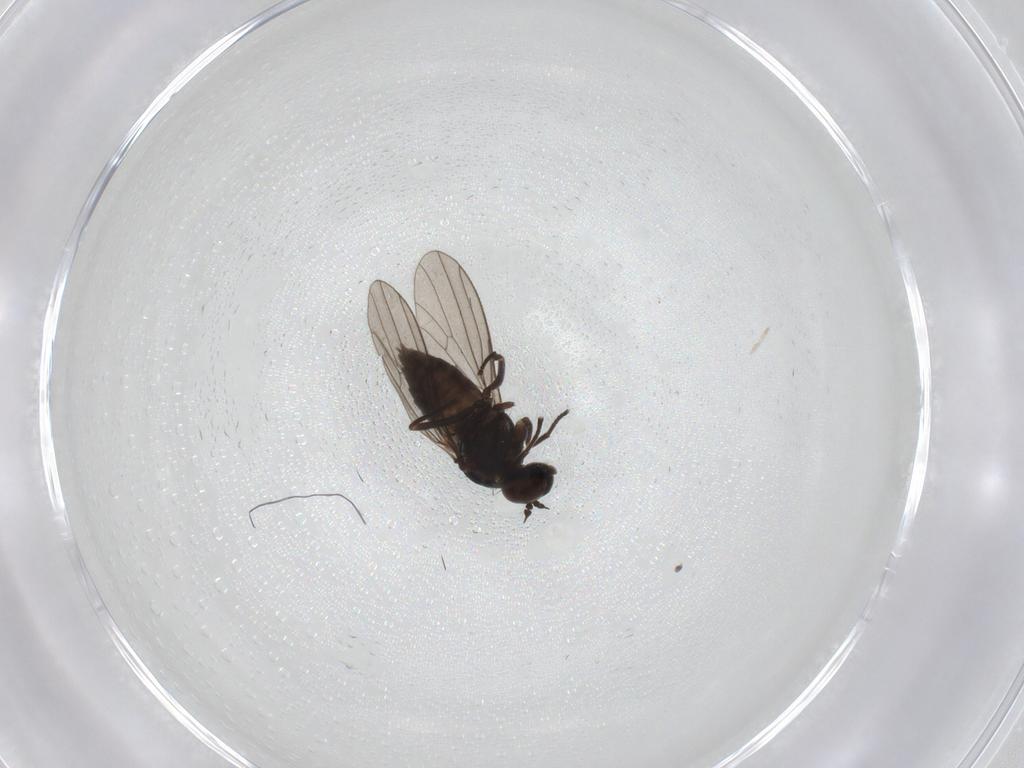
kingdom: Animalia
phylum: Arthropoda
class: Insecta
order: Diptera
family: Dolichopodidae
